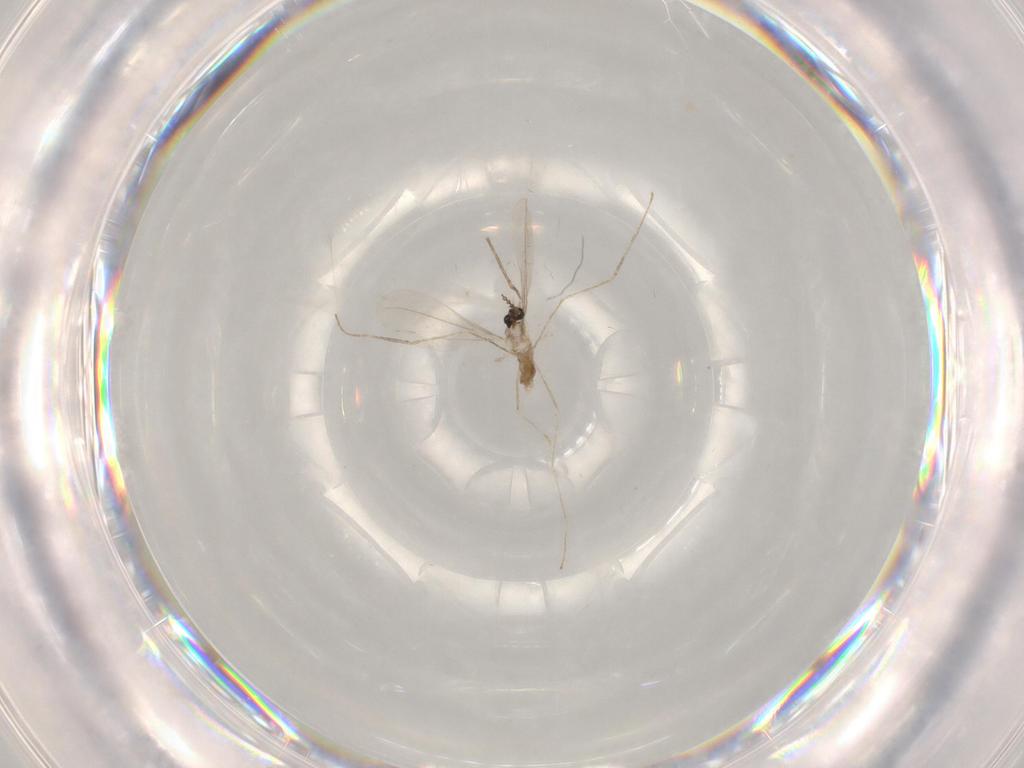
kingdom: Animalia
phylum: Arthropoda
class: Insecta
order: Diptera
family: Cecidomyiidae
